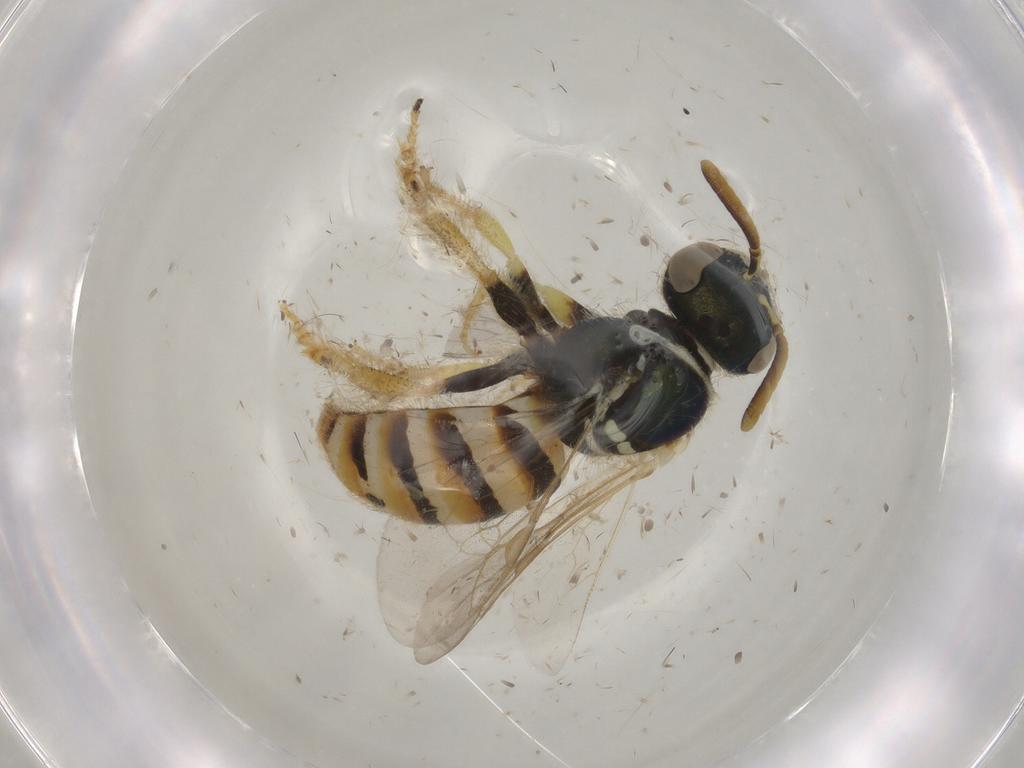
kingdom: Animalia
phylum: Arthropoda
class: Insecta
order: Hymenoptera
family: Halictidae
